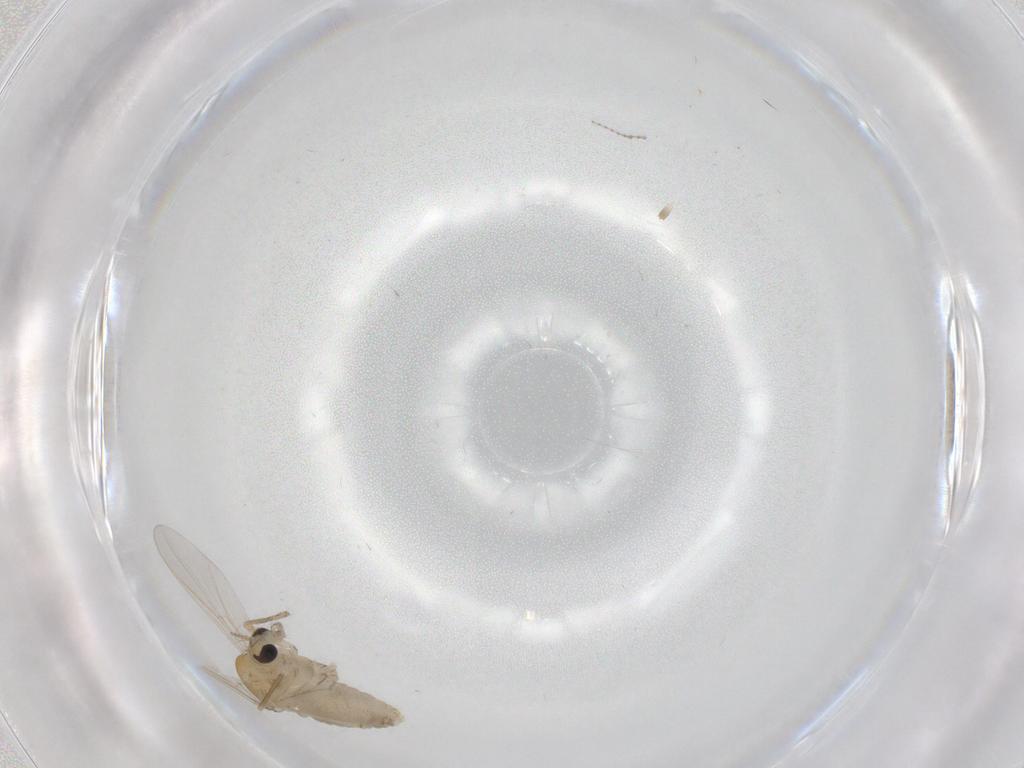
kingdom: Animalia
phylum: Arthropoda
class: Insecta
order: Diptera
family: Chironomidae
